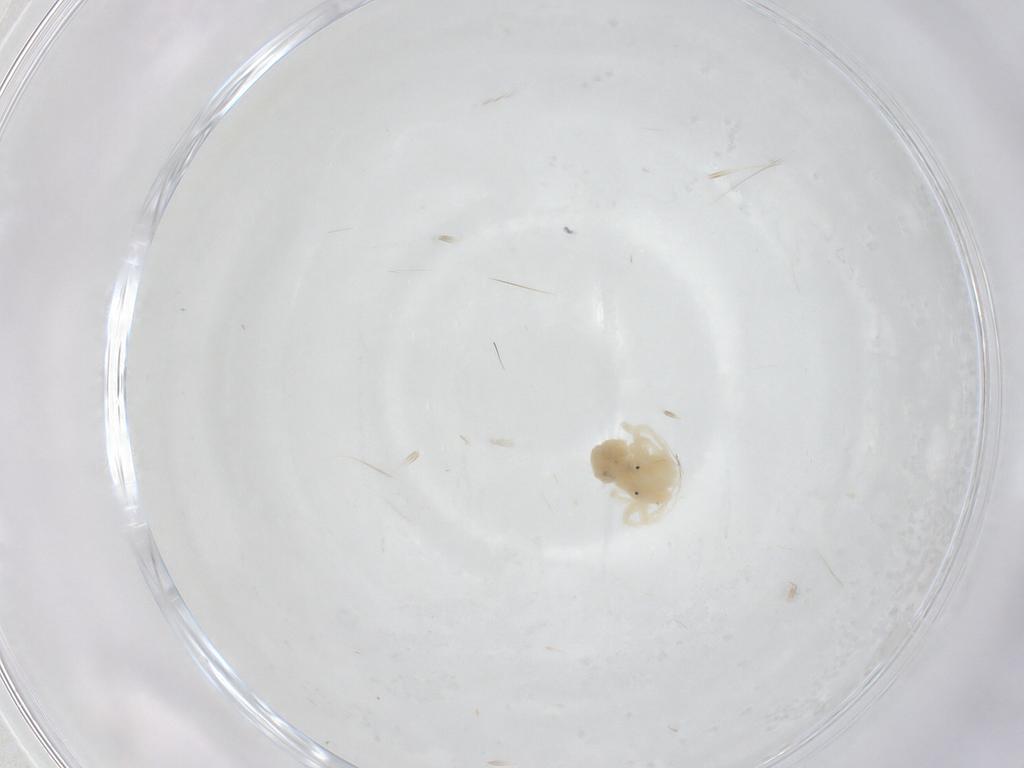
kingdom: Animalia
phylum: Arthropoda
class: Arachnida
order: Trombidiformes
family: Anystidae
